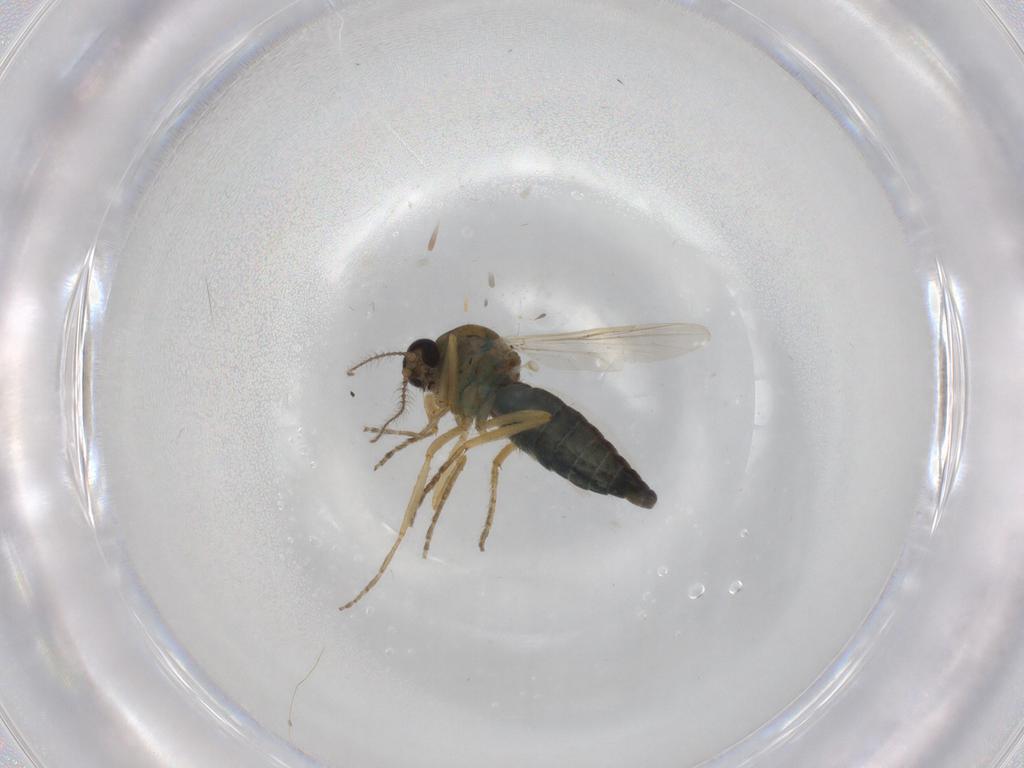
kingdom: Animalia
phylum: Arthropoda
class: Insecta
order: Diptera
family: Ceratopogonidae
